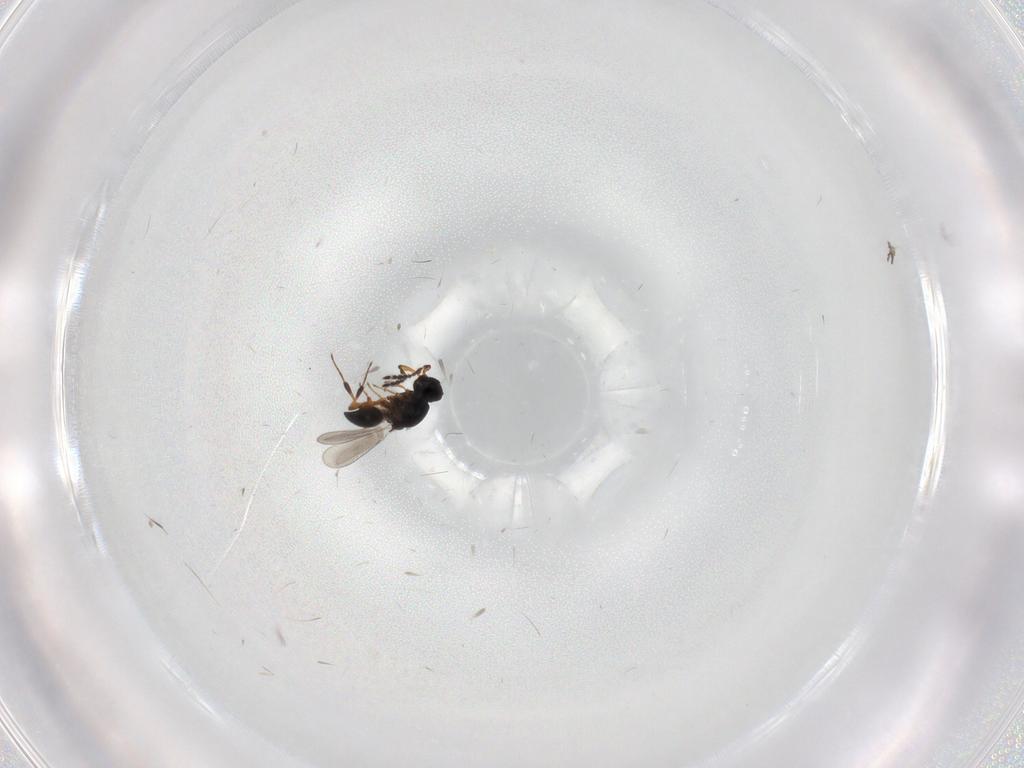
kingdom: Animalia
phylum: Arthropoda
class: Insecta
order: Hymenoptera
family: Platygastridae
